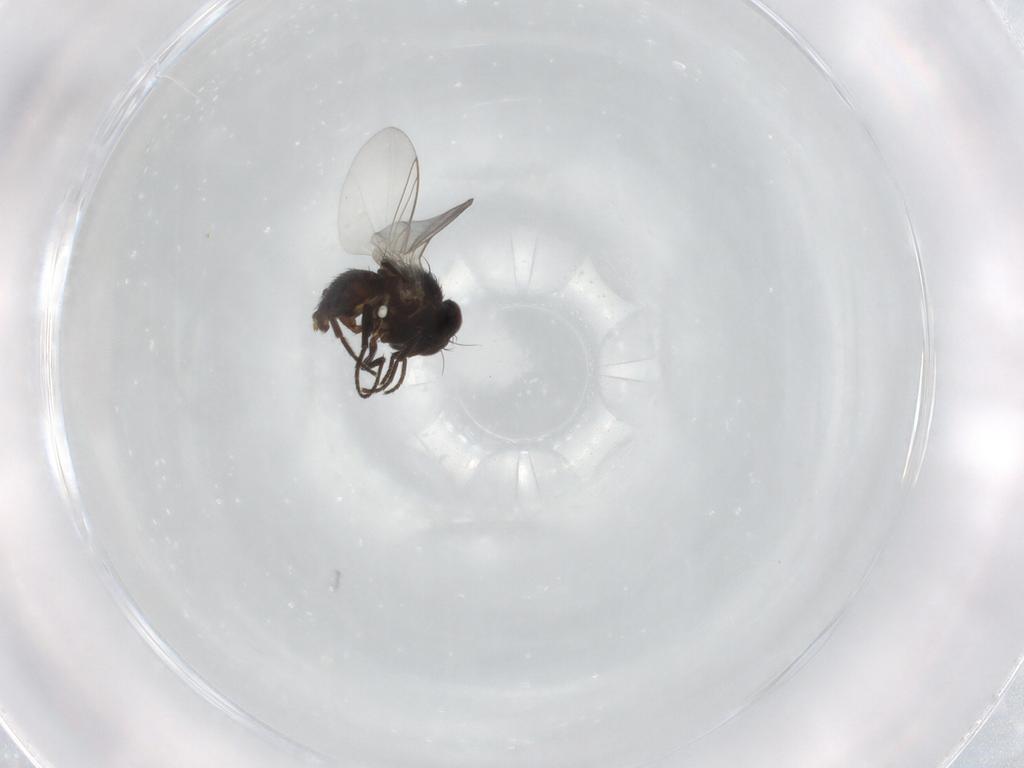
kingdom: Animalia
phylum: Arthropoda
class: Insecta
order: Diptera
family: Agromyzidae
